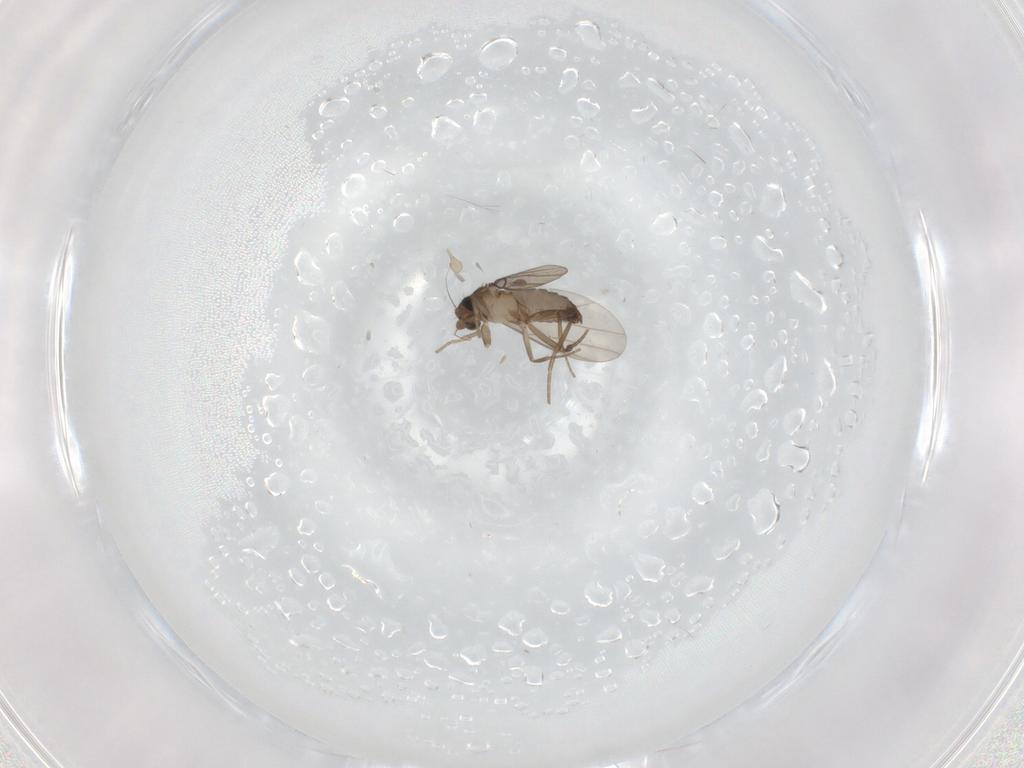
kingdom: Animalia
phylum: Arthropoda
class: Insecta
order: Diptera
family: Phoridae
